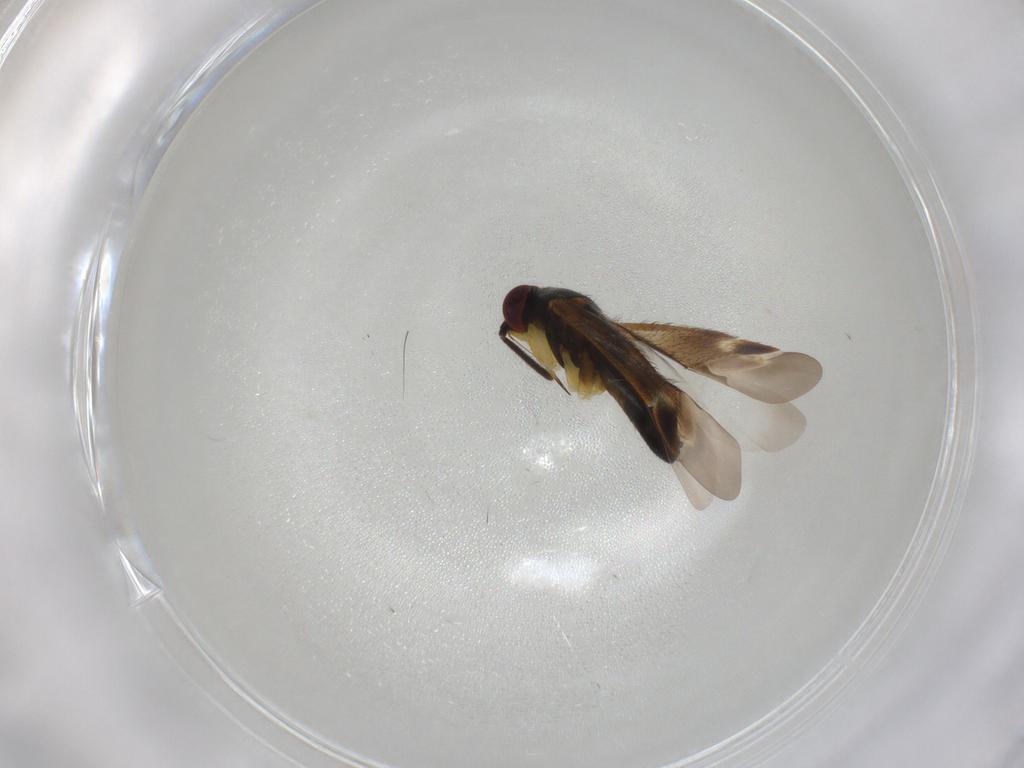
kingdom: Animalia
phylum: Arthropoda
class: Insecta
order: Hemiptera
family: Miridae
